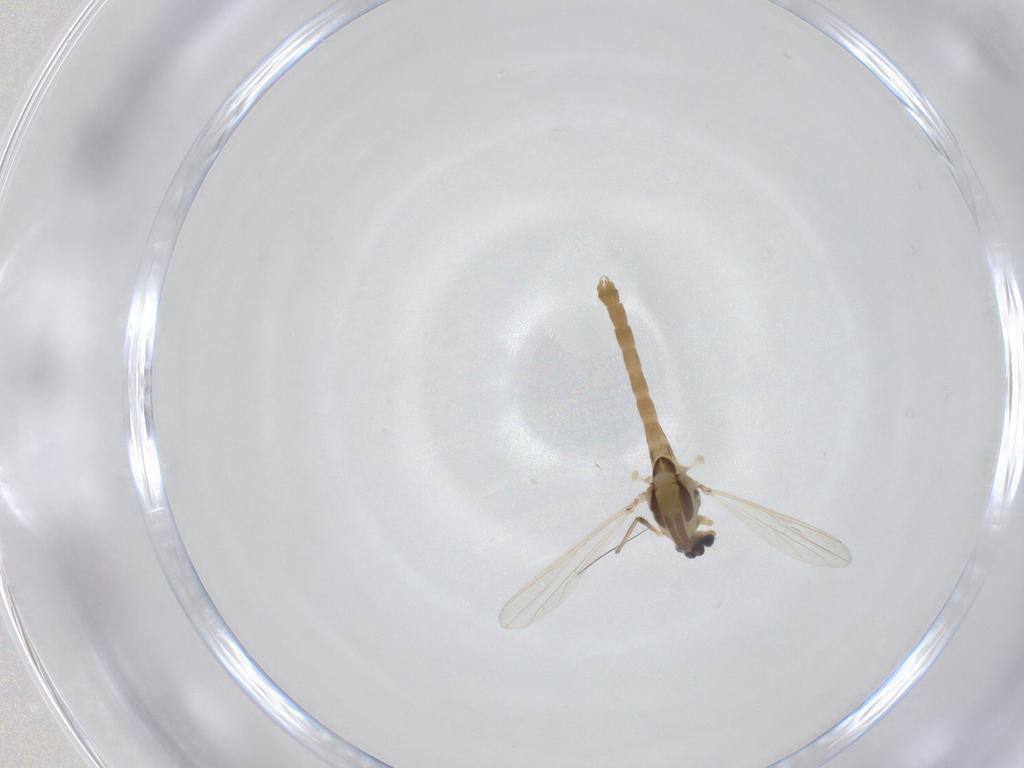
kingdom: Animalia
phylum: Arthropoda
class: Insecta
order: Diptera
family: Chironomidae
